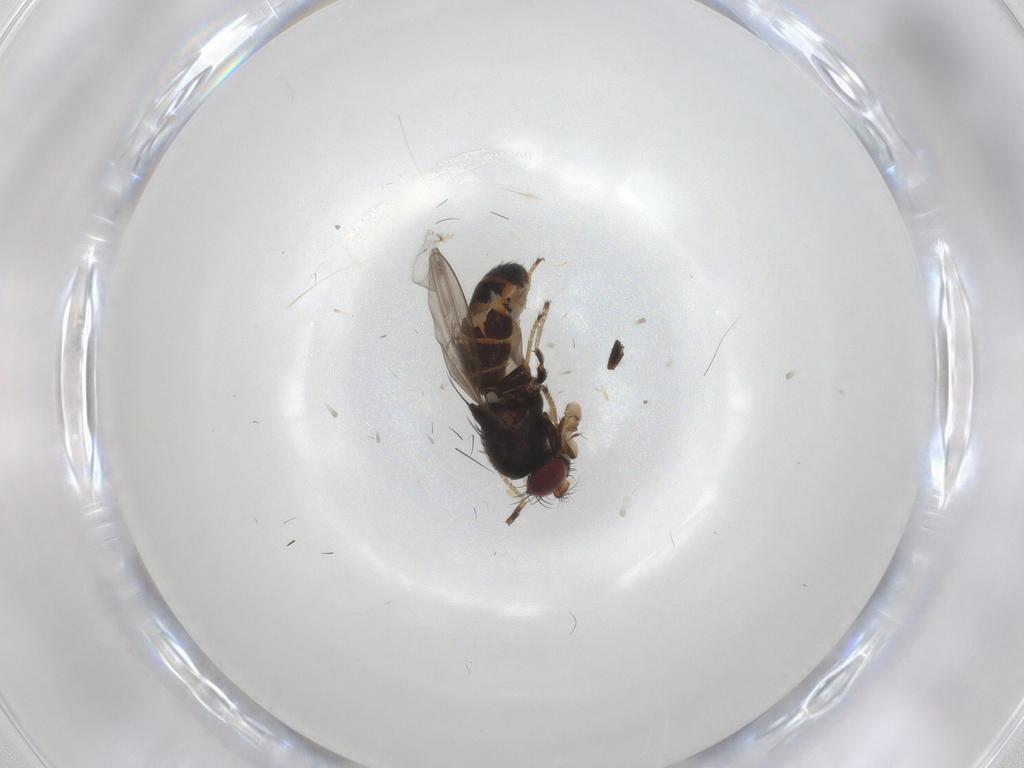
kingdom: Animalia
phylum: Arthropoda
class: Insecta
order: Diptera
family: Ephydridae
